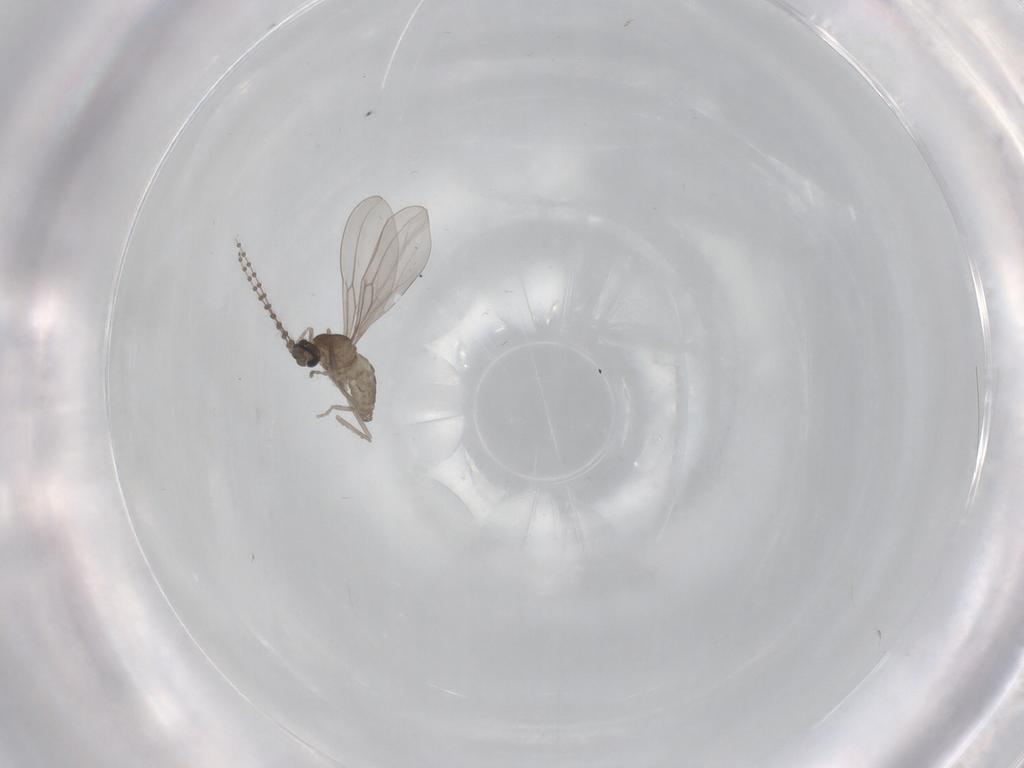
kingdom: Animalia
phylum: Arthropoda
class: Insecta
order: Diptera
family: Cecidomyiidae
